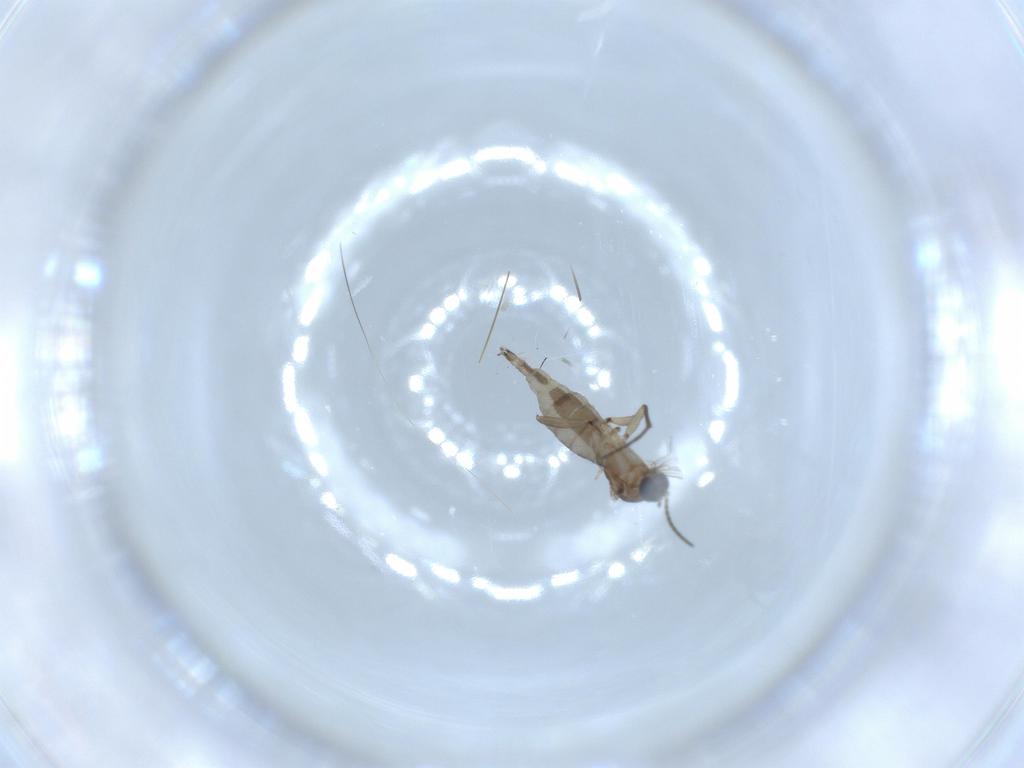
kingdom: Animalia
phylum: Arthropoda
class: Insecta
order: Diptera
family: Sciaridae
